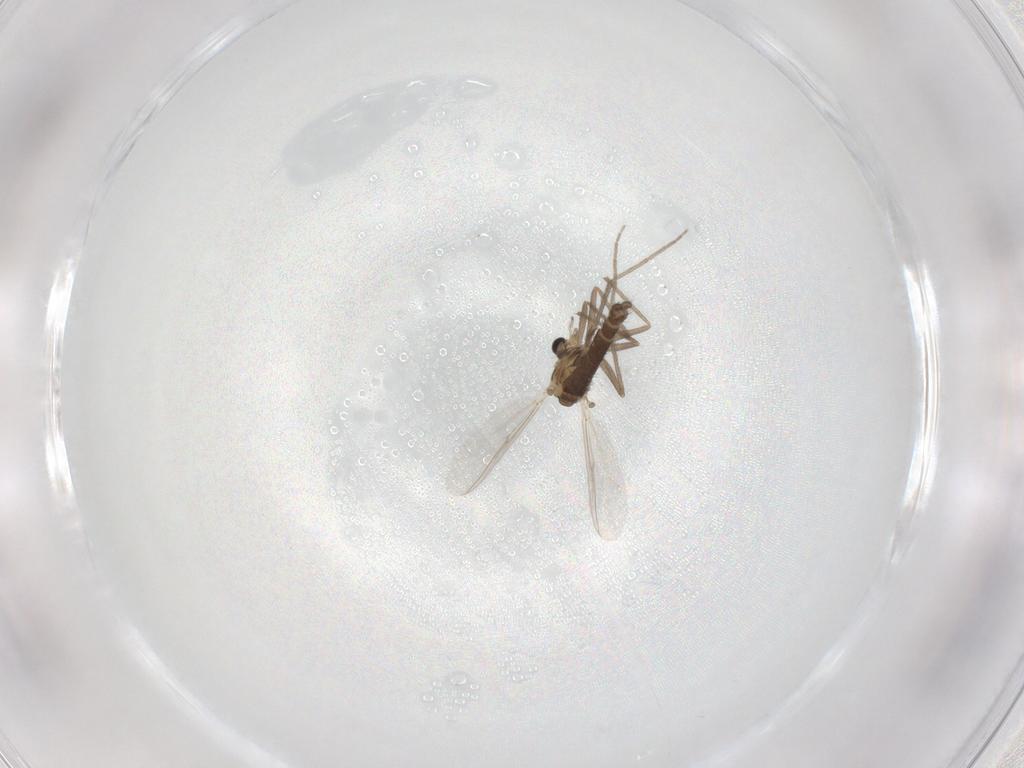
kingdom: Animalia
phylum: Arthropoda
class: Insecta
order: Diptera
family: Chironomidae
